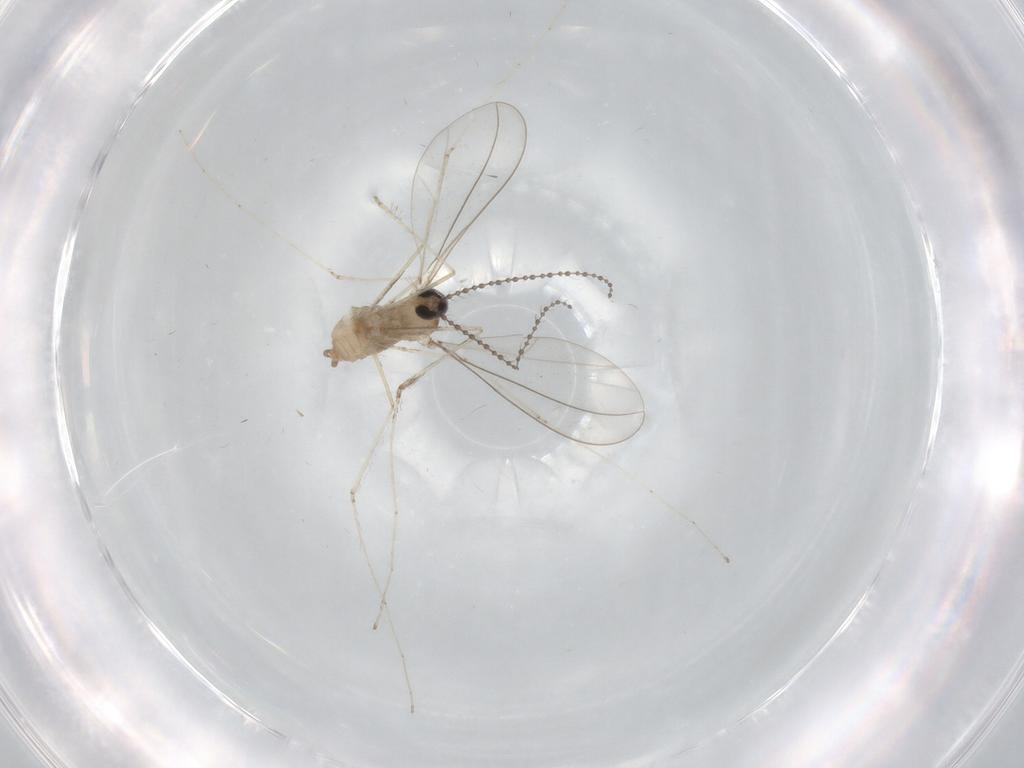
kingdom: Animalia
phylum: Arthropoda
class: Insecta
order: Diptera
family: Cecidomyiidae
